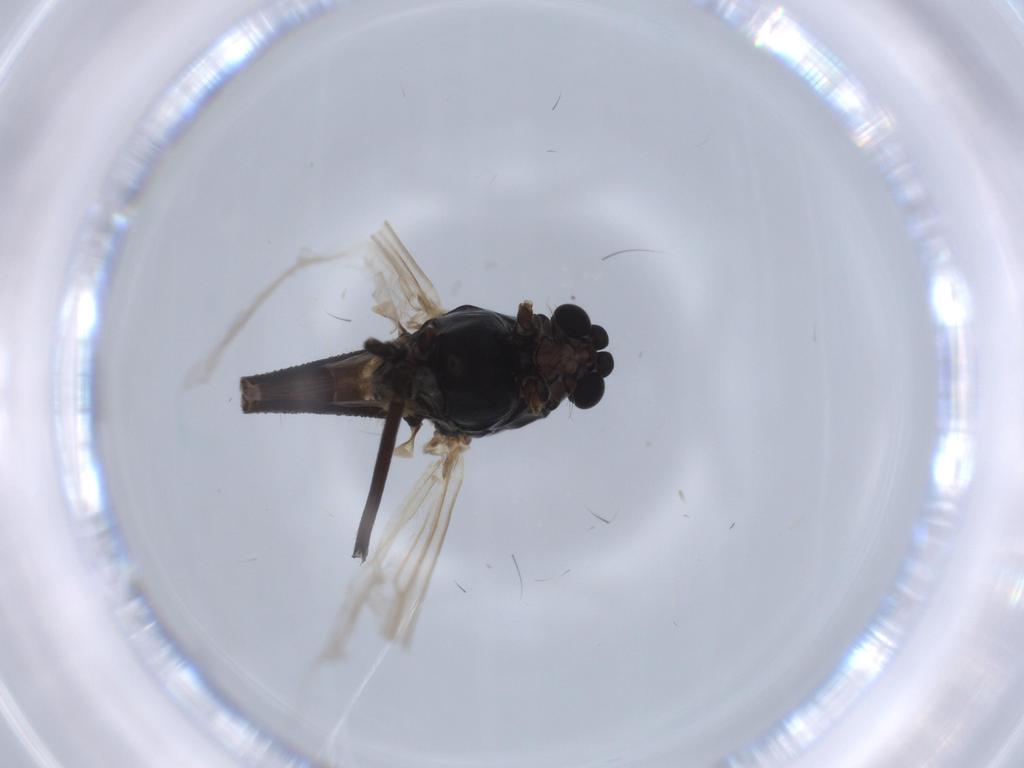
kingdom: Animalia
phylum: Arthropoda
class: Insecta
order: Diptera
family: Chironomidae
